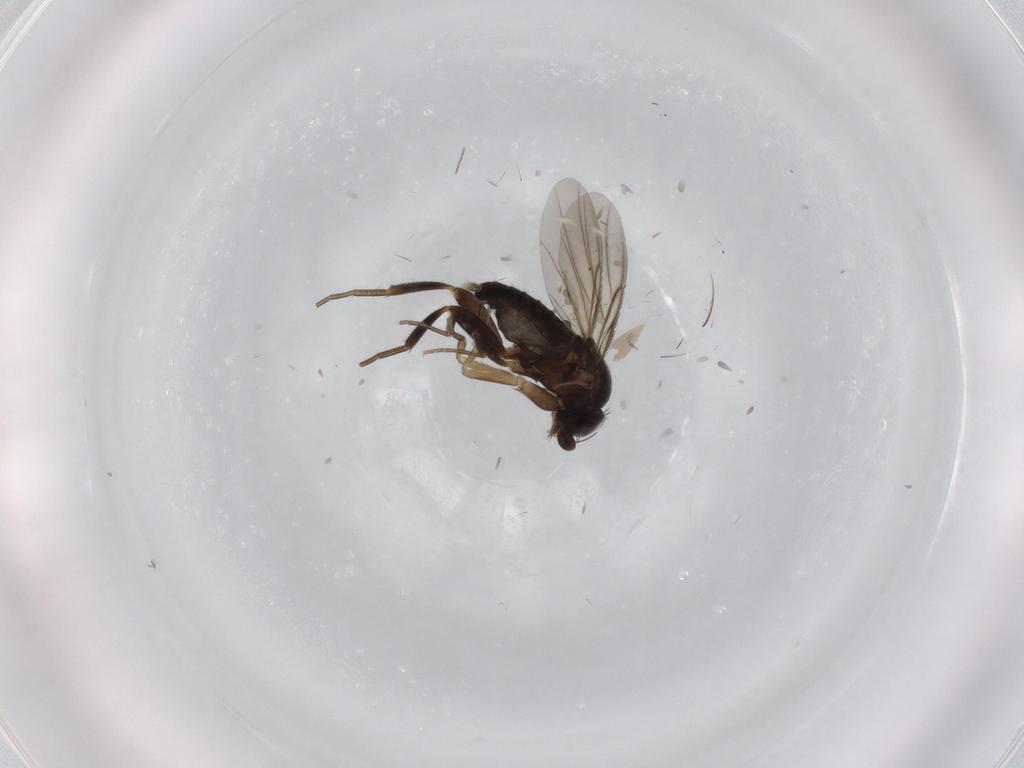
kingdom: Animalia
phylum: Arthropoda
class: Insecta
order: Diptera
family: Phoridae
